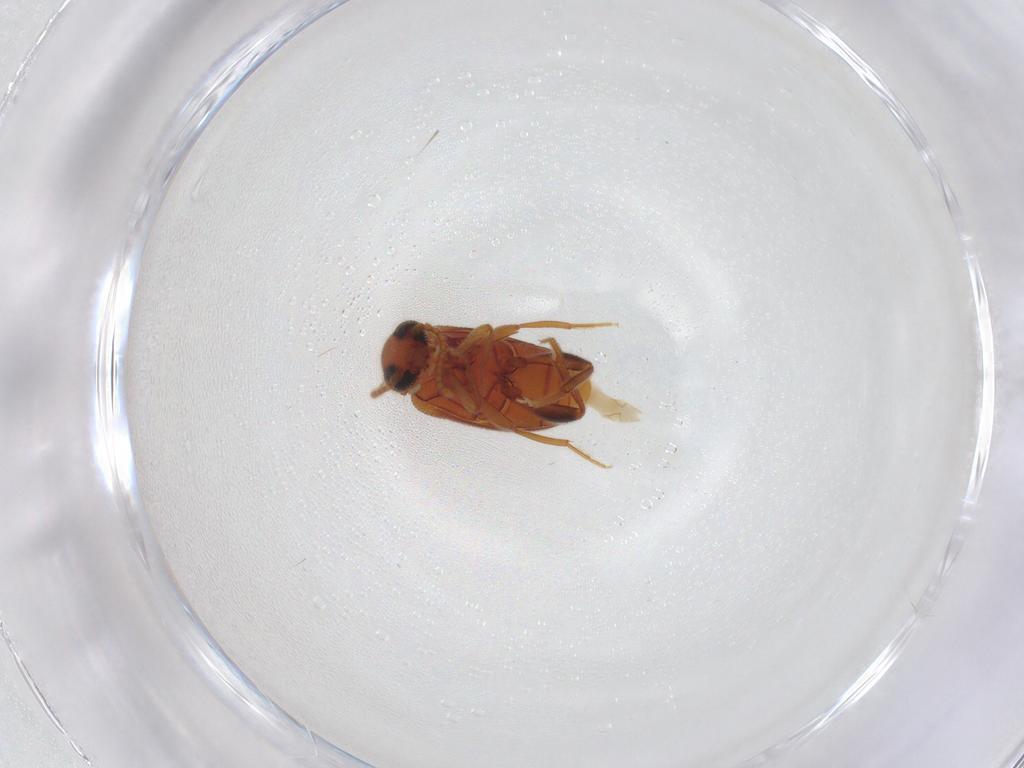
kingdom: Animalia
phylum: Arthropoda
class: Insecta
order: Coleoptera
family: Aderidae
